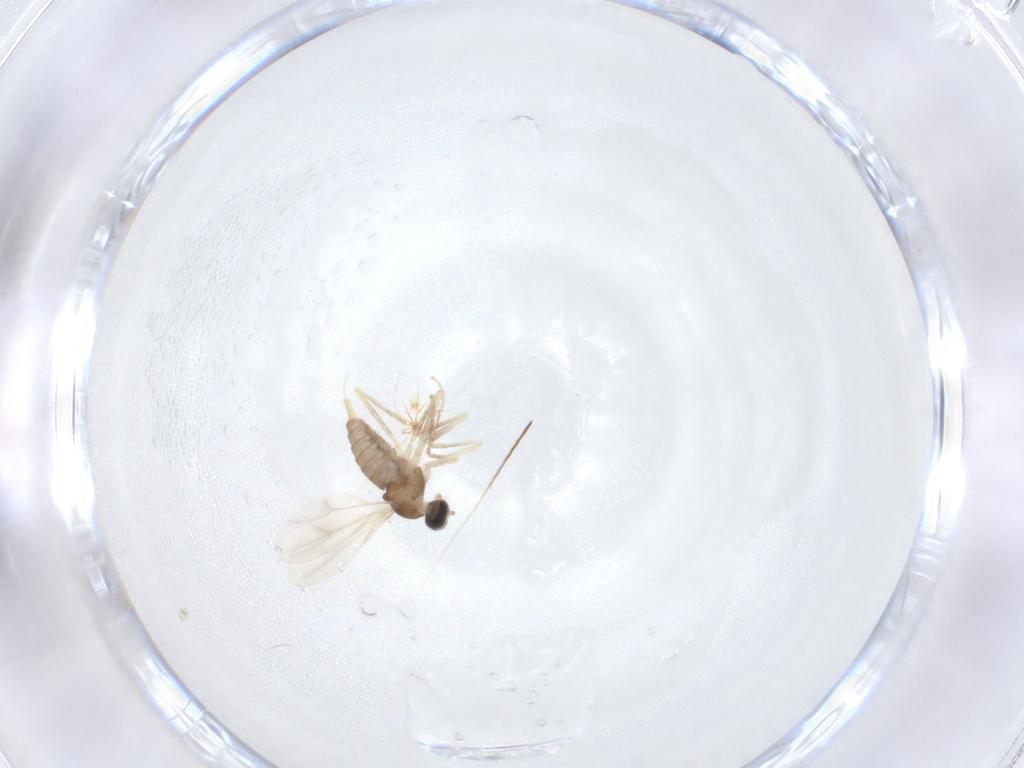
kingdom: Animalia
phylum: Arthropoda
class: Insecta
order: Diptera
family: Cecidomyiidae
